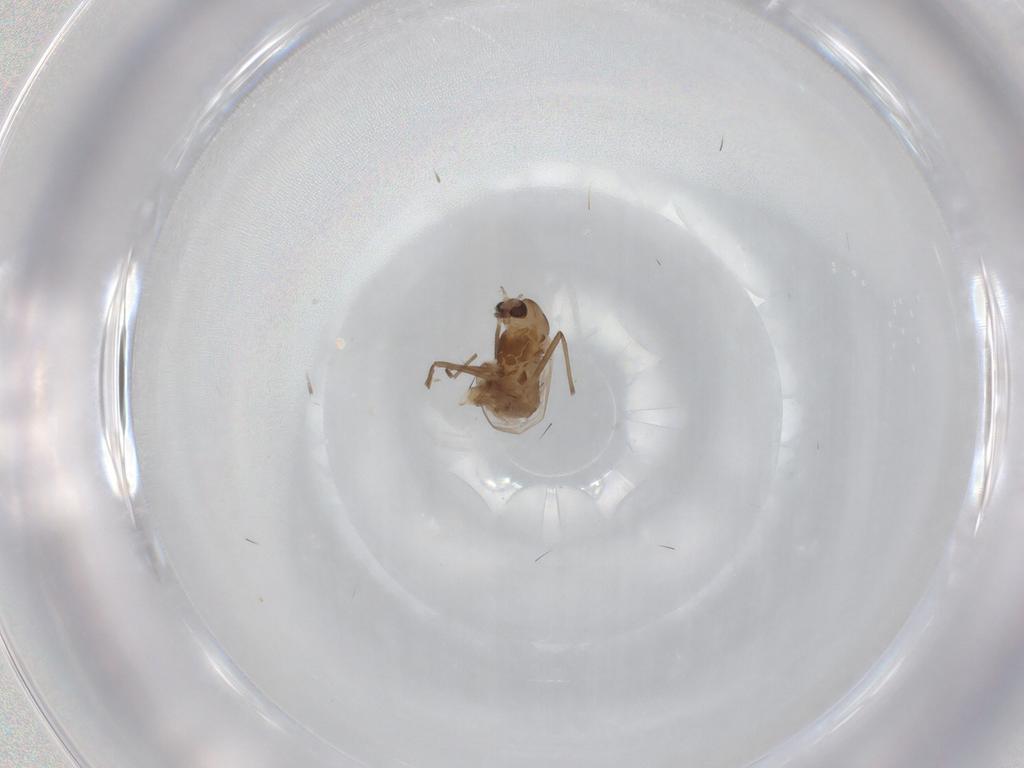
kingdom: Animalia
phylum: Arthropoda
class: Insecta
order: Diptera
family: Chironomidae
